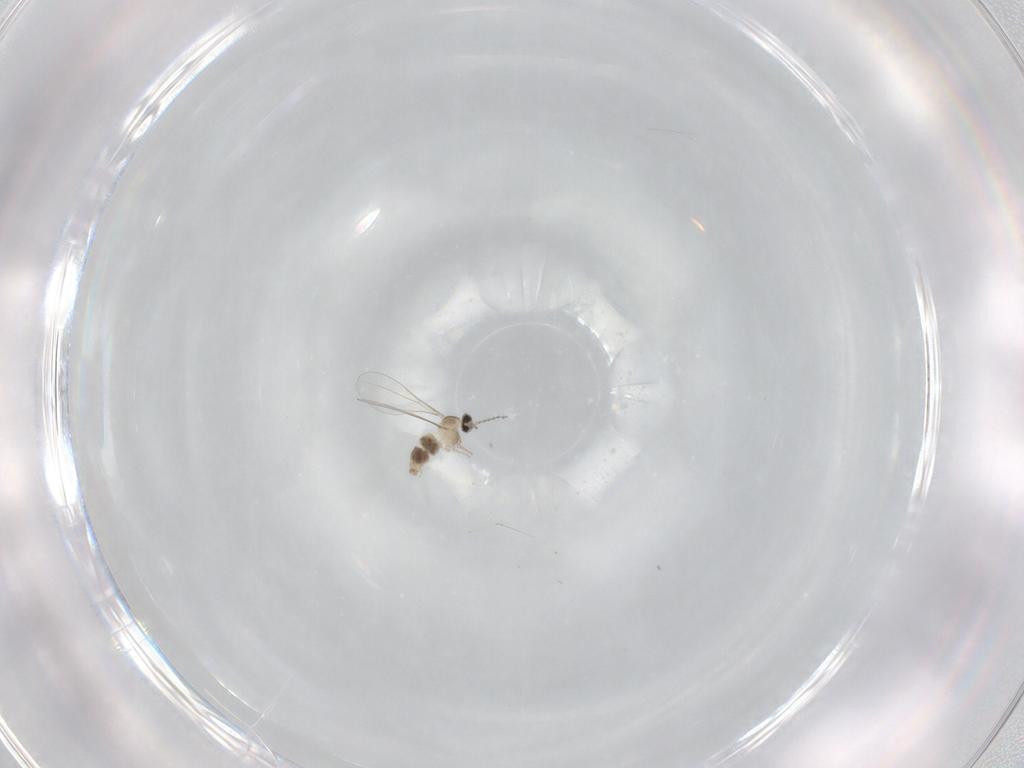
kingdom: Animalia
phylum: Arthropoda
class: Insecta
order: Diptera
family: Cecidomyiidae
